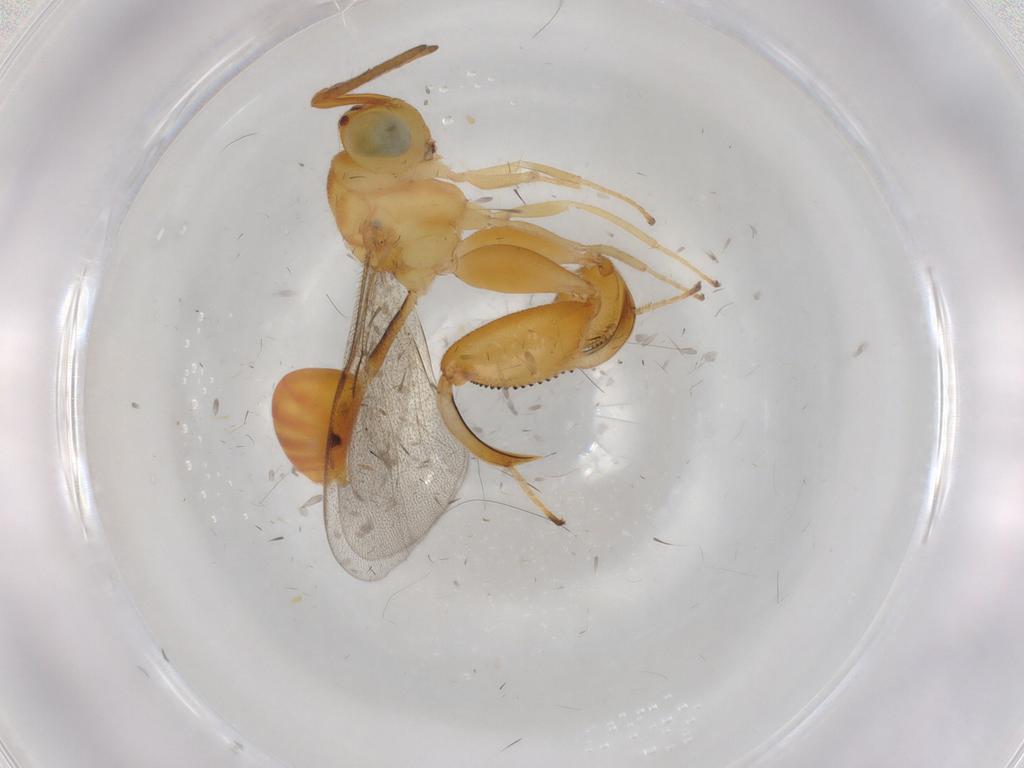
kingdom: Animalia
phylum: Arthropoda
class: Insecta
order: Hymenoptera
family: Chalcididae
